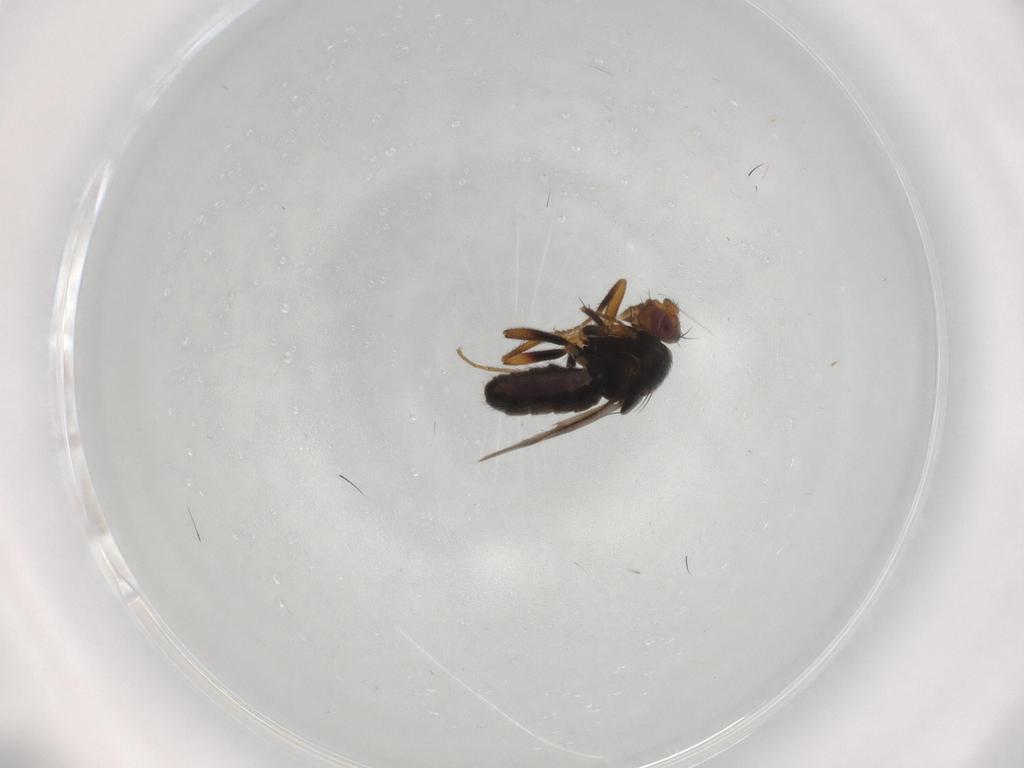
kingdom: Animalia
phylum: Arthropoda
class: Insecta
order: Diptera
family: Sphaeroceridae
